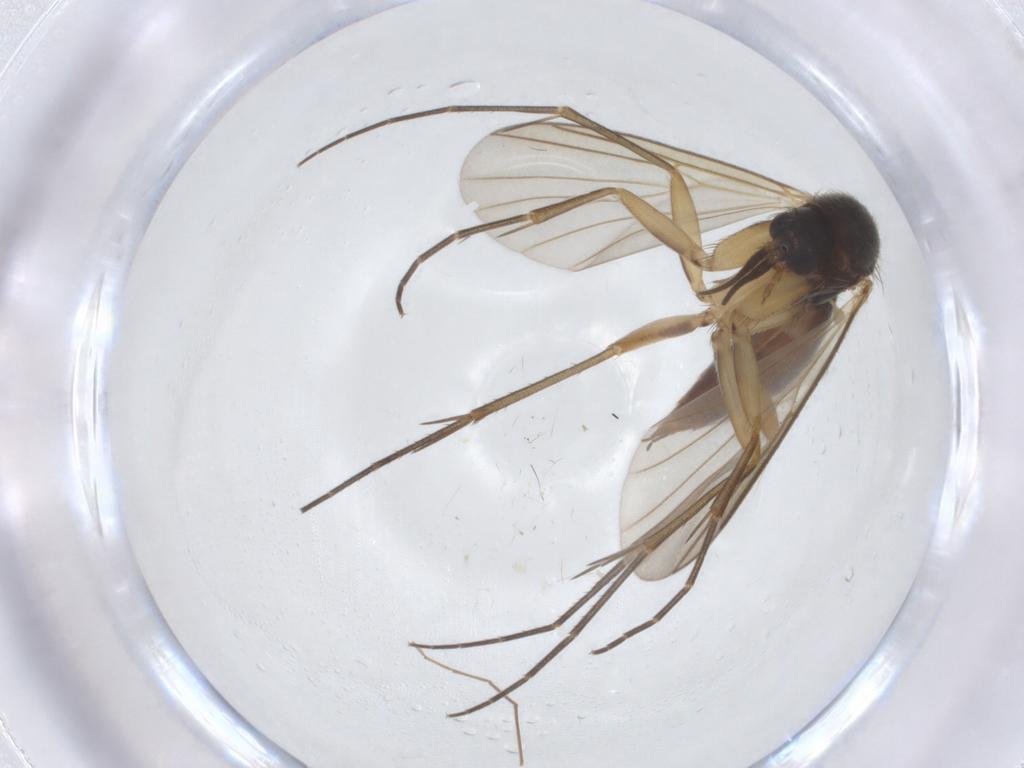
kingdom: Animalia
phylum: Arthropoda
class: Insecta
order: Diptera
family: Chironomidae
